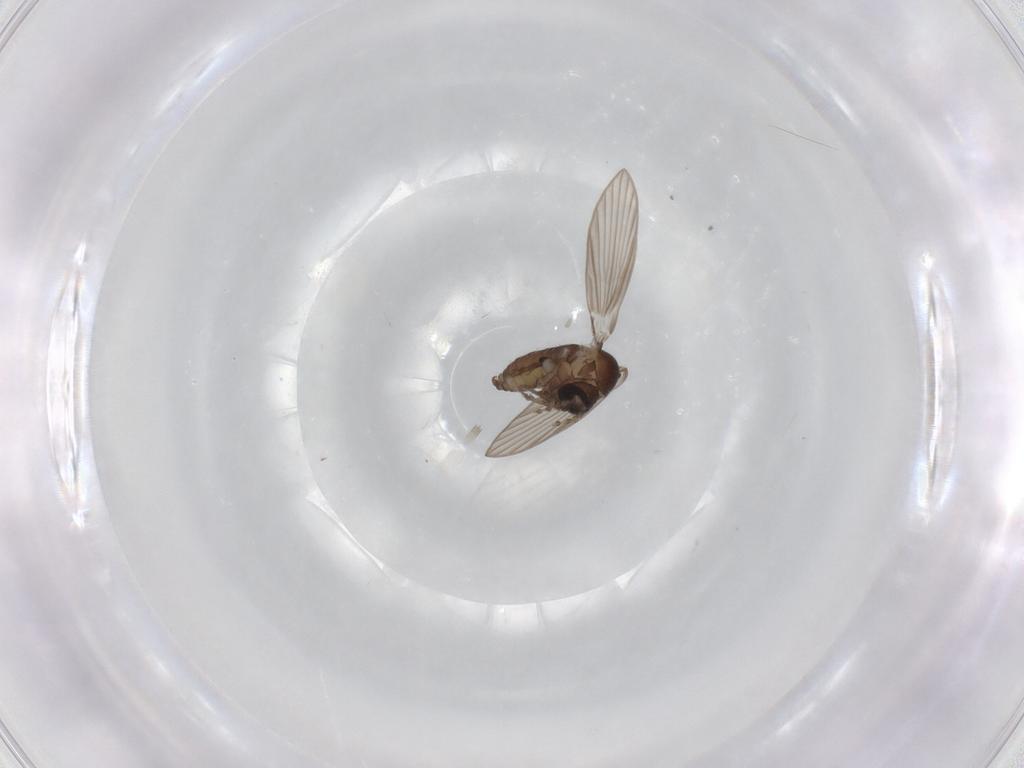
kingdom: Animalia
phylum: Arthropoda
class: Insecta
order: Diptera
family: Psychodidae
